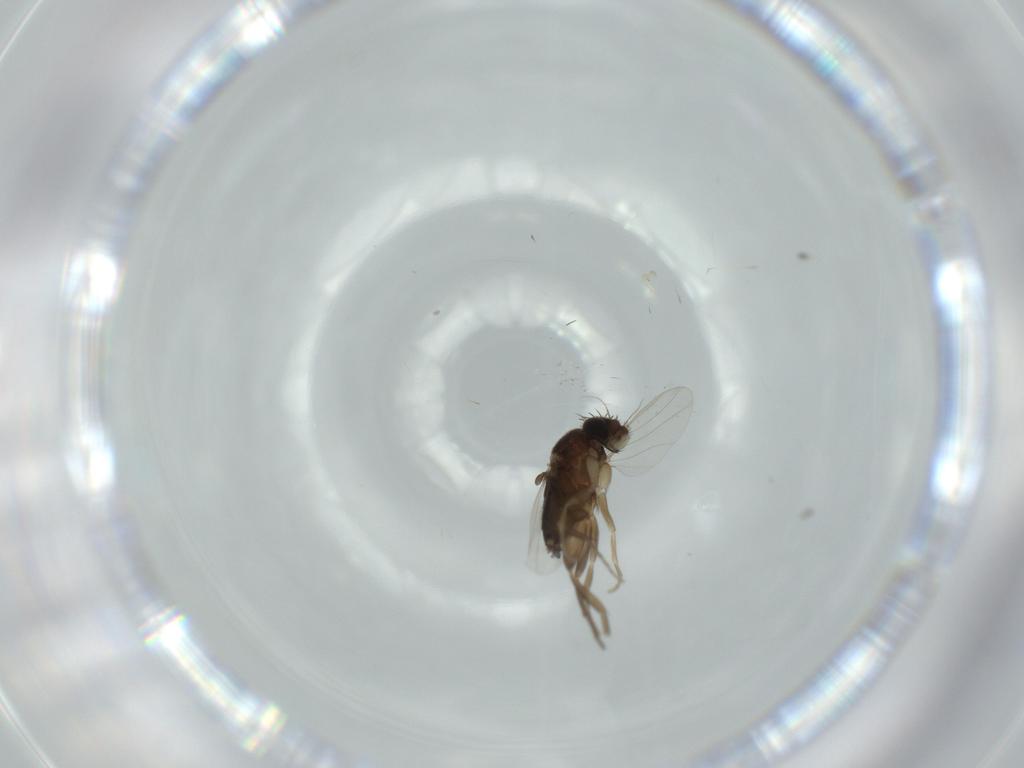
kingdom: Animalia
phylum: Arthropoda
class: Insecta
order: Diptera
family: Phoridae
